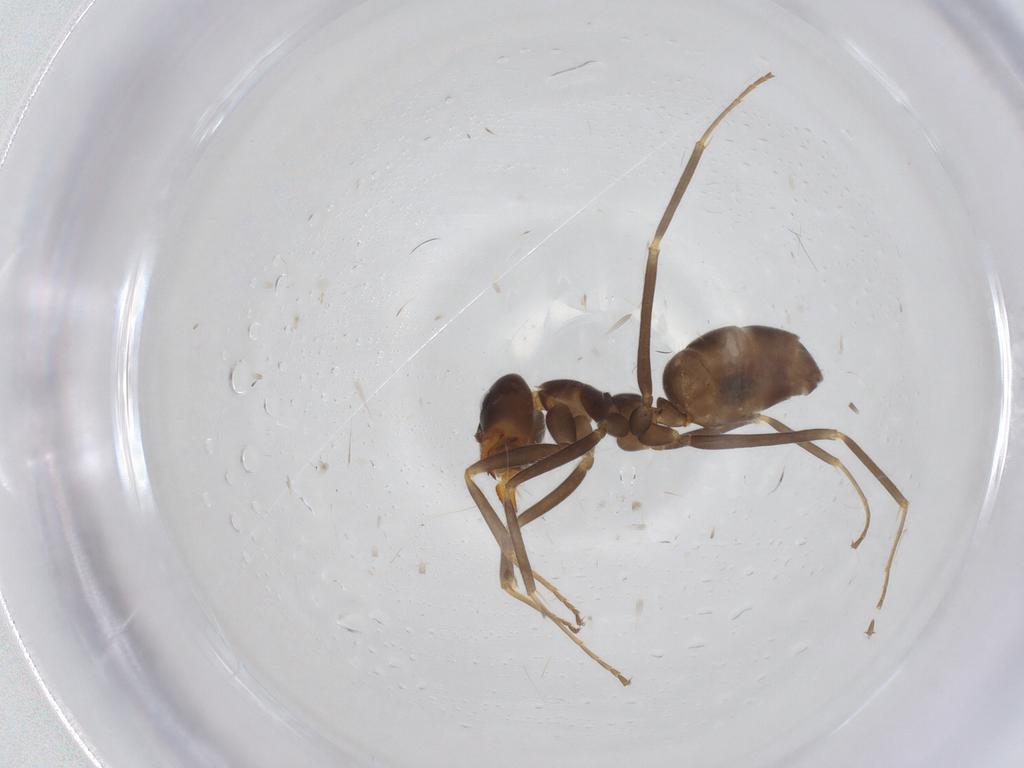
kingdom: Animalia
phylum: Arthropoda
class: Insecta
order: Hymenoptera
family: Formicidae
